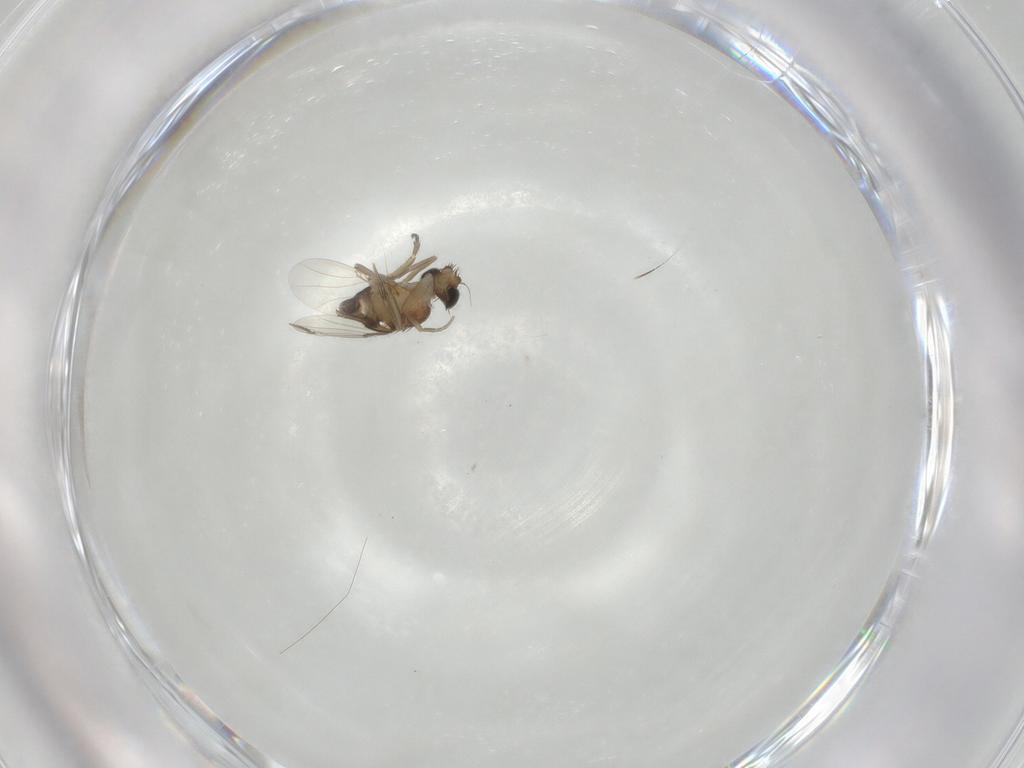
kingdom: Animalia
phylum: Arthropoda
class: Insecta
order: Diptera
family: Phoridae
